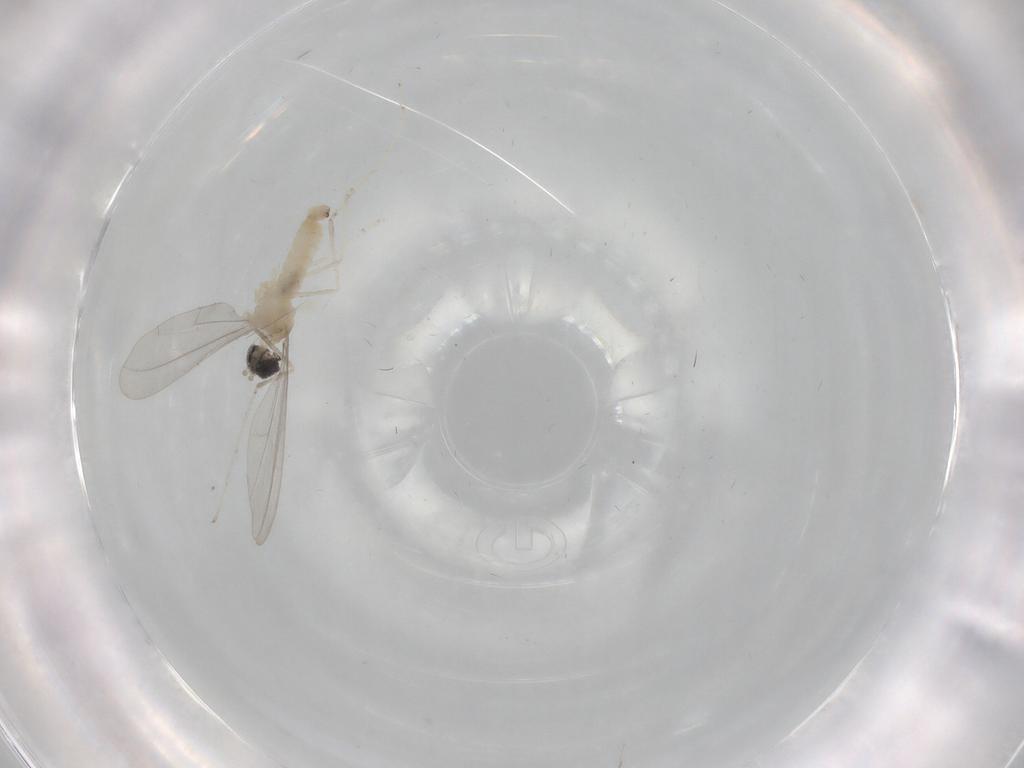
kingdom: Animalia
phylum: Arthropoda
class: Insecta
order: Diptera
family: Cecidomyiidae
